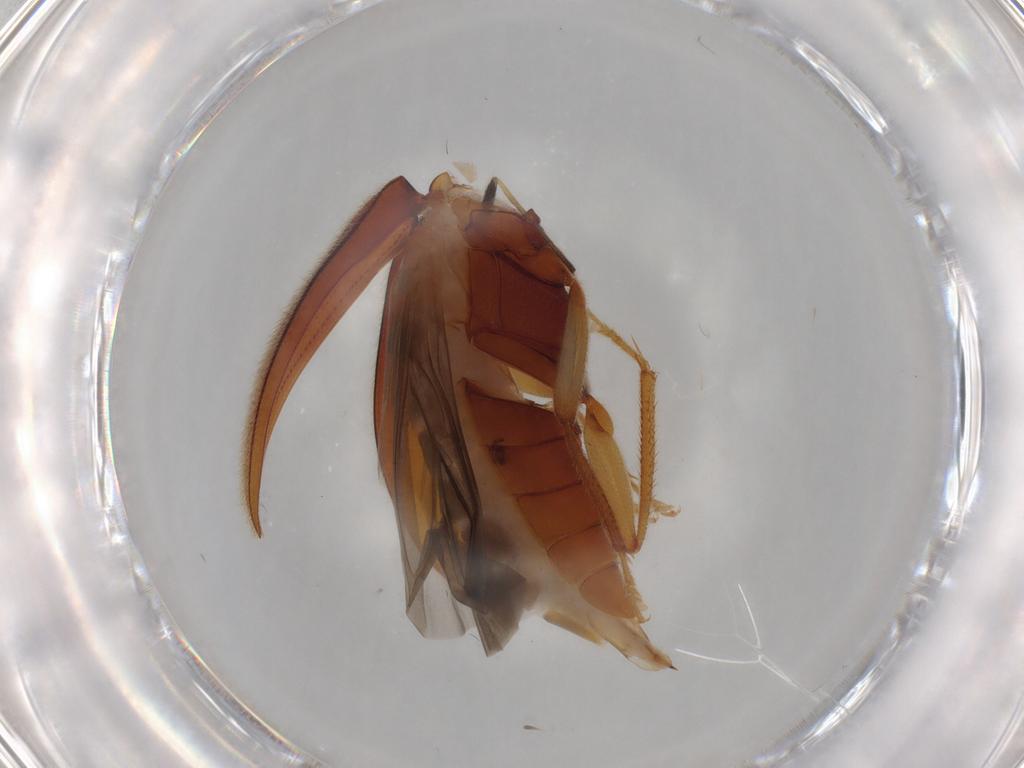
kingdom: Animalia
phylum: Arthropoda
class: Insecta
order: Coleoptera
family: Ptilodactylidae
